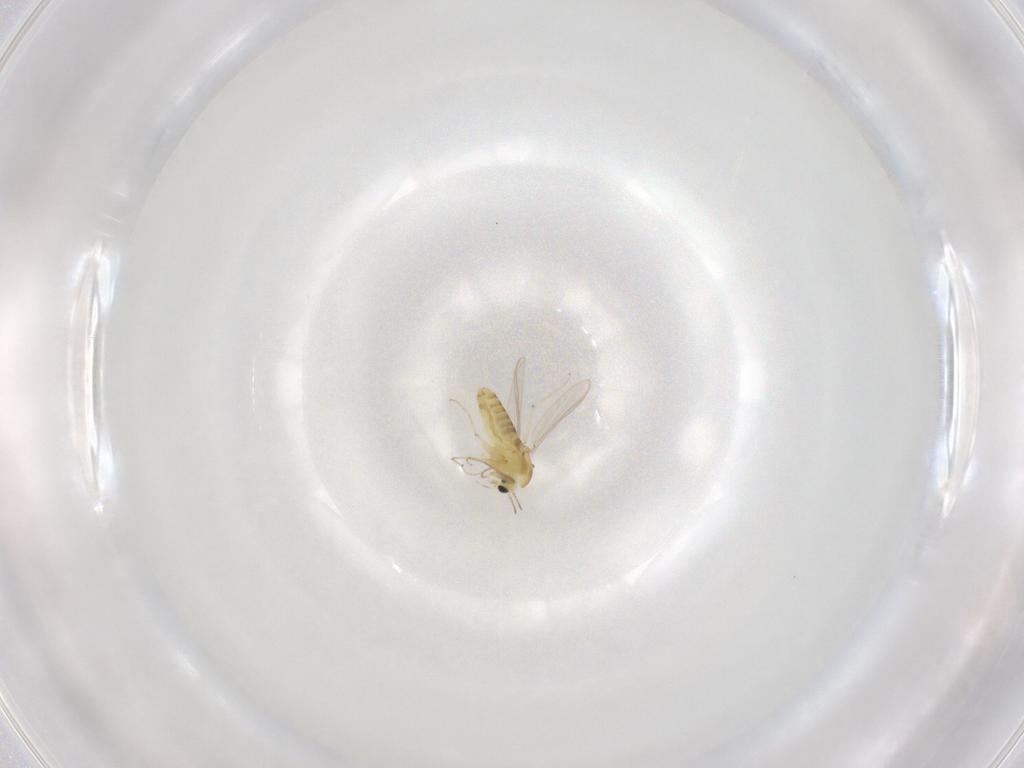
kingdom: Animalia
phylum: Arthropoda
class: Insecta
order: Diptera
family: Chironomidae
